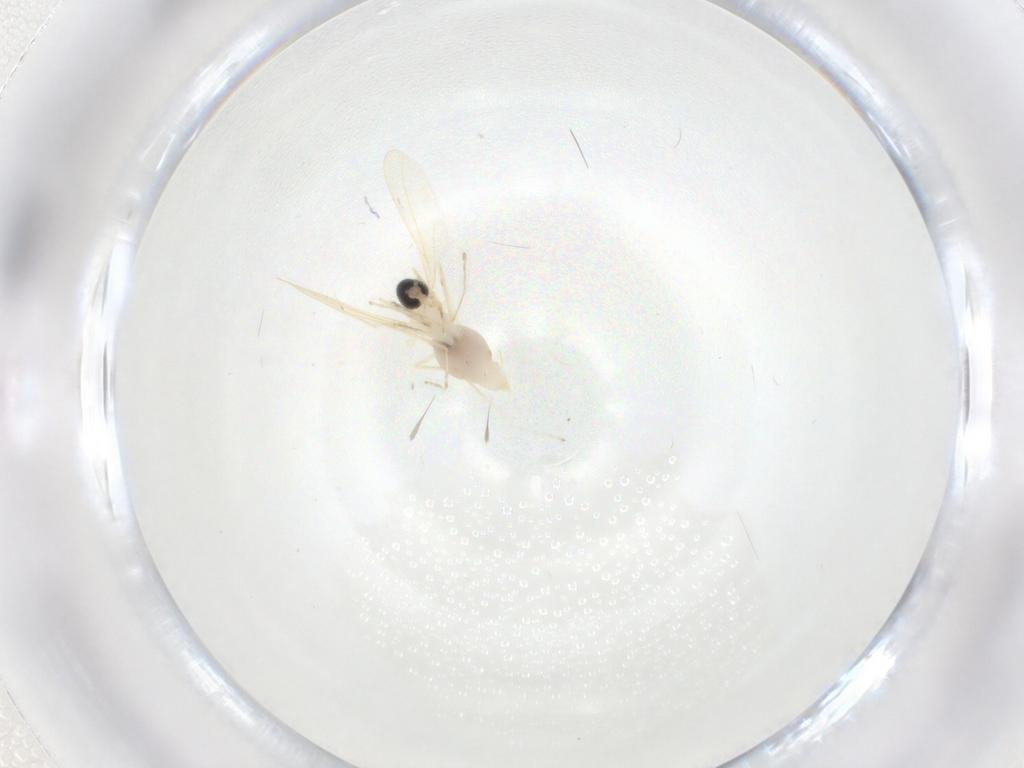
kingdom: Animalia
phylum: Arthropoda
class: Insecta
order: Diptera
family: Cecidomyiidae
